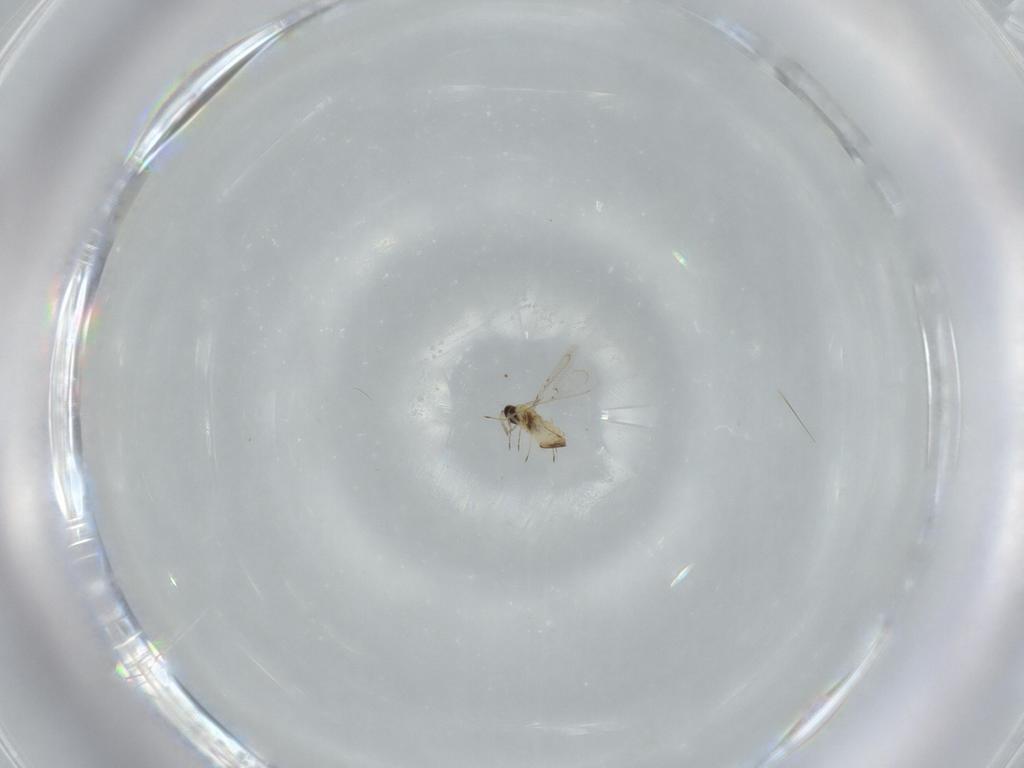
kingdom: Animalia
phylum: Arthropoda
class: Insecta
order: Hymenoptera
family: Trichogrammatidae
